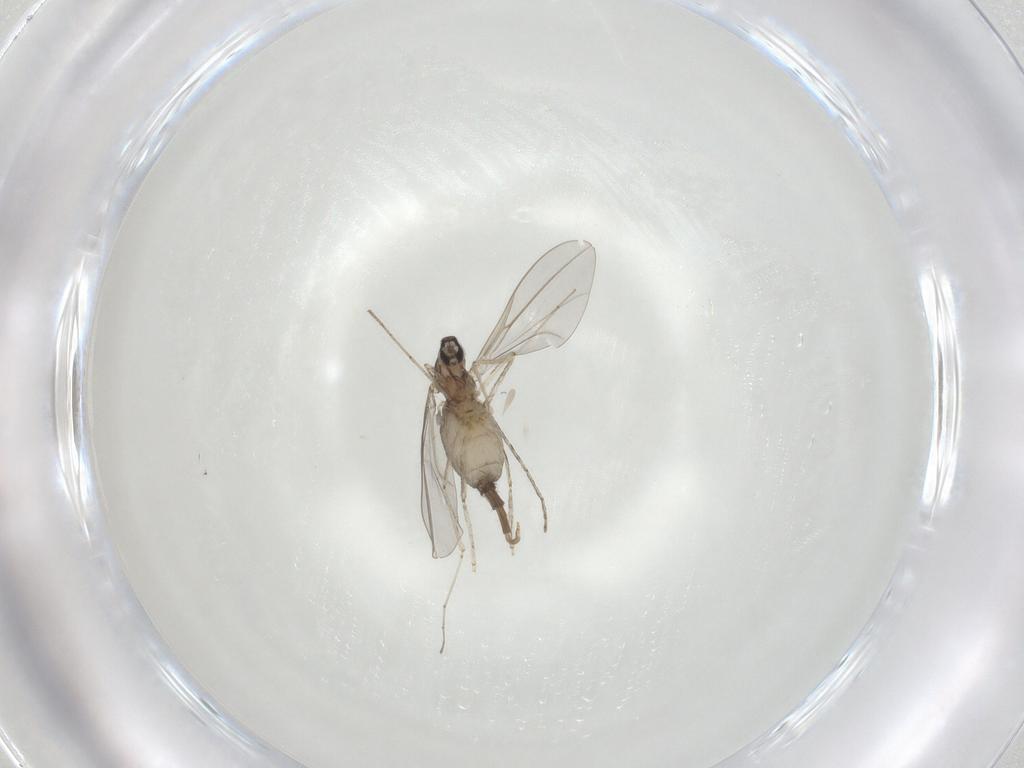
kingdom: Animalia
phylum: Arthropoda
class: Insecta
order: Diptera
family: Cecidomyiidae
